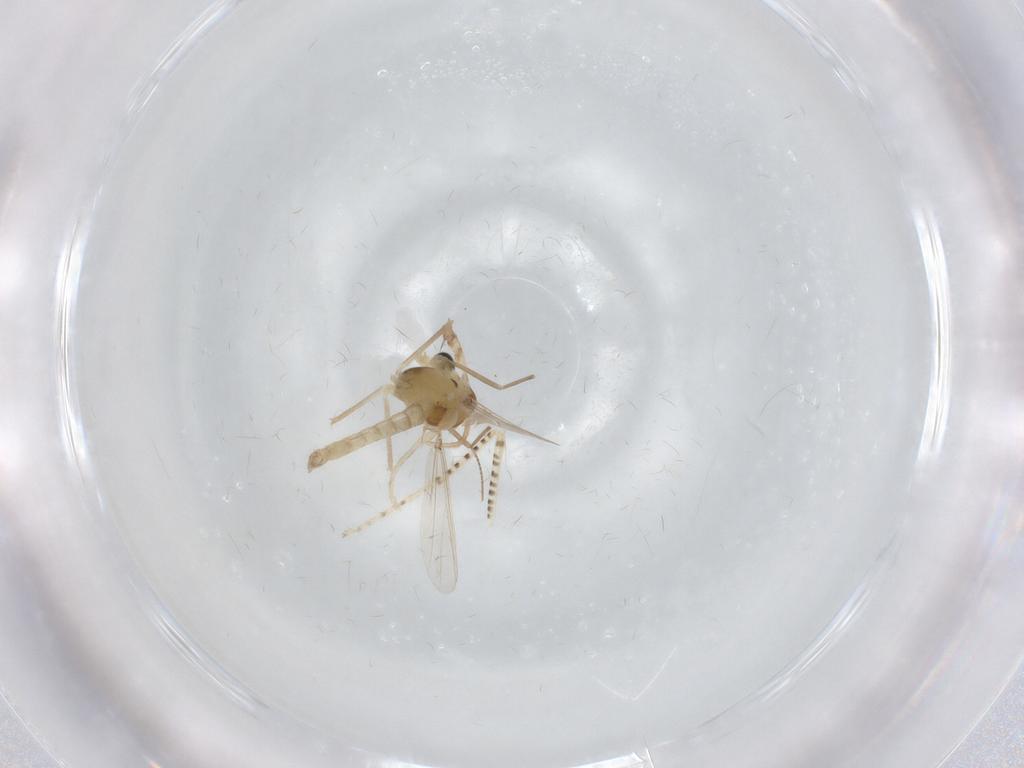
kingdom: Animalia
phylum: Arthropoda
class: Insecta
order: Diptera
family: Chaoboridae
